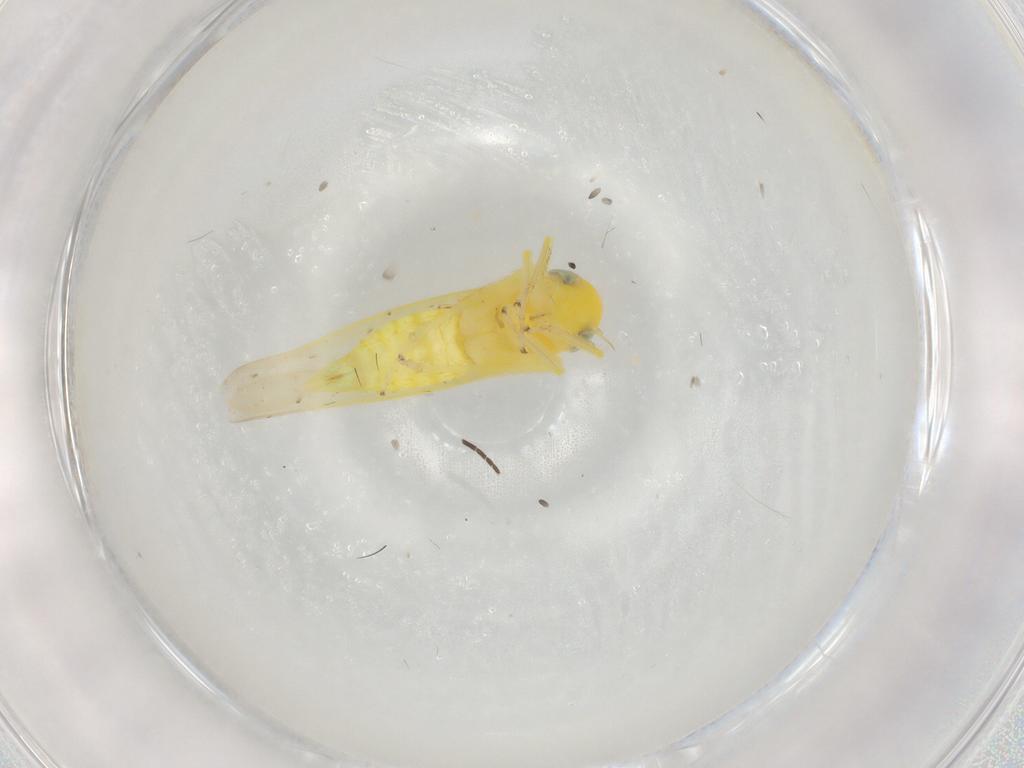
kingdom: Animalia
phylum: Arthropoda
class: Insecta
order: Hemiptera
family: Cicadellidae
